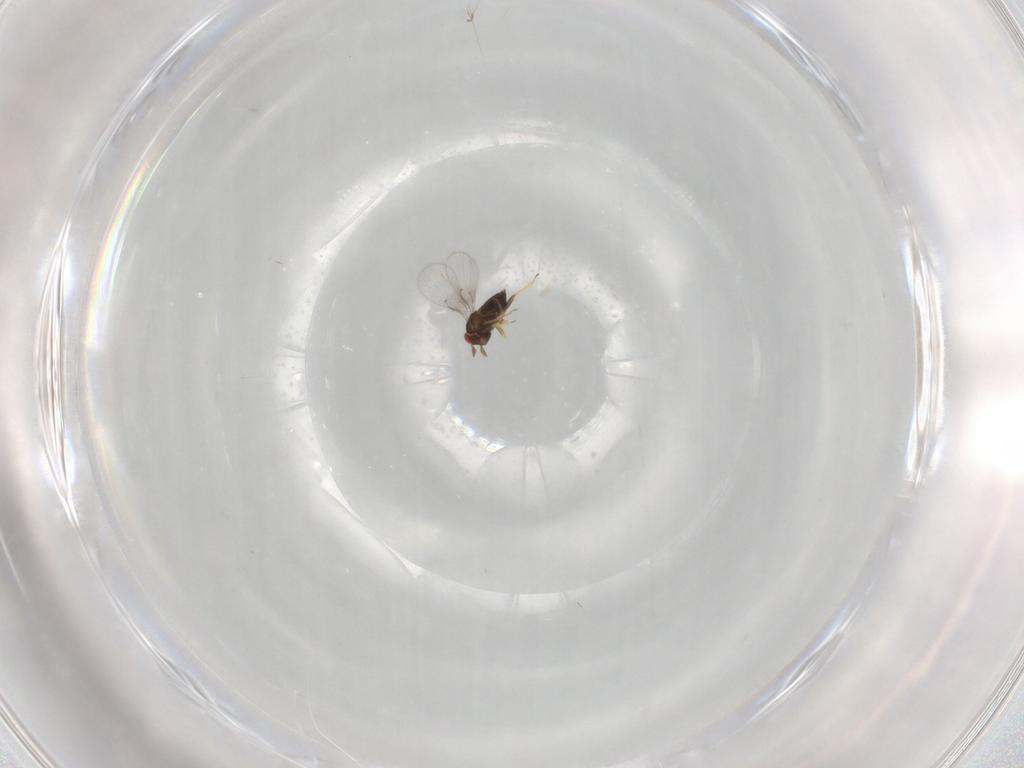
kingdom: Animalia
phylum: Arthropoda
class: Insecta
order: Hymenoptera
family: Trichogrammatidae
